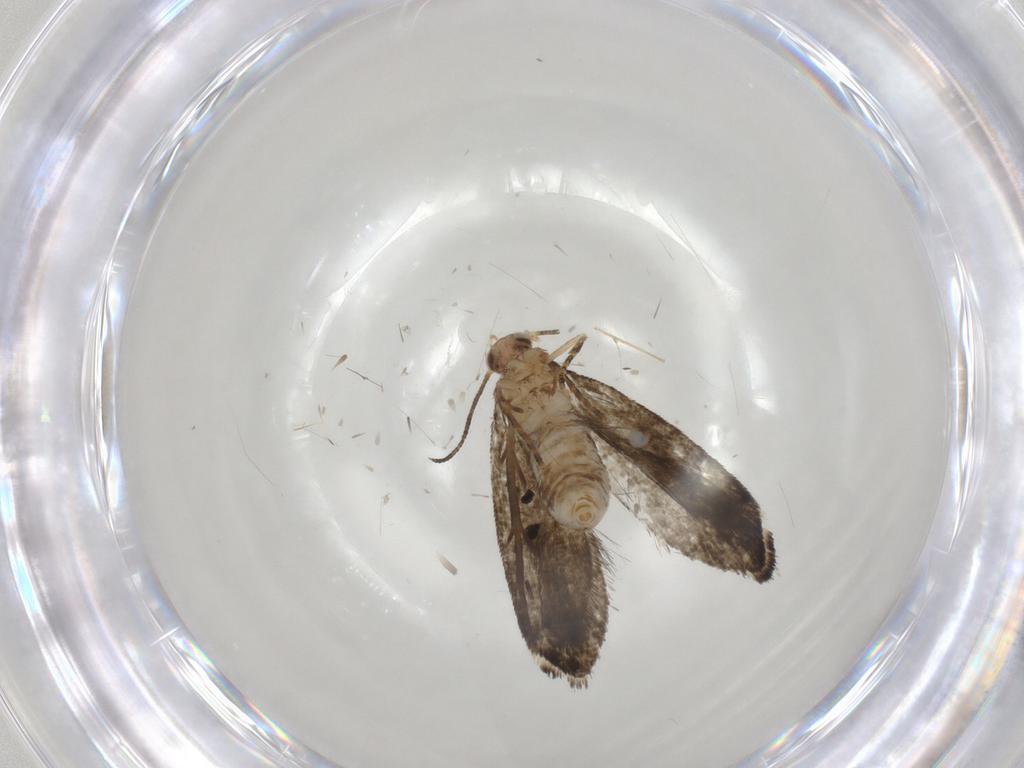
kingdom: Animalia
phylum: Arthropoda
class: Insecta
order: Lepidoptera
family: Tineidae
